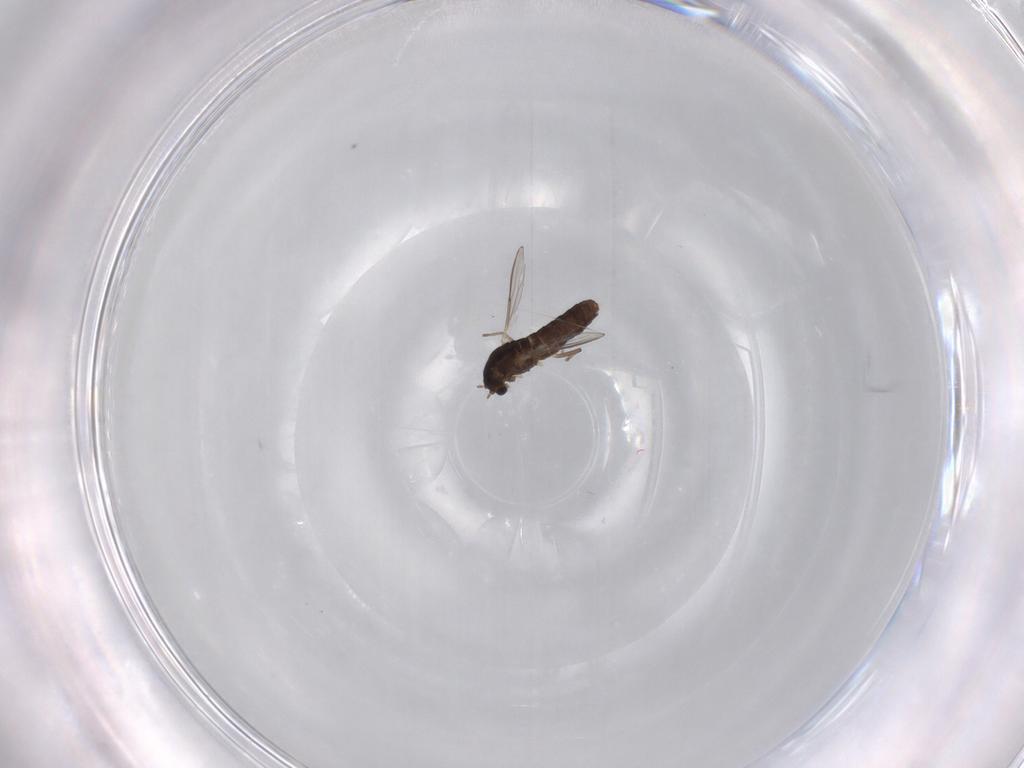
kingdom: Animalia
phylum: Arthropoda
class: Insecta
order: Diptera
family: Chironomidae
